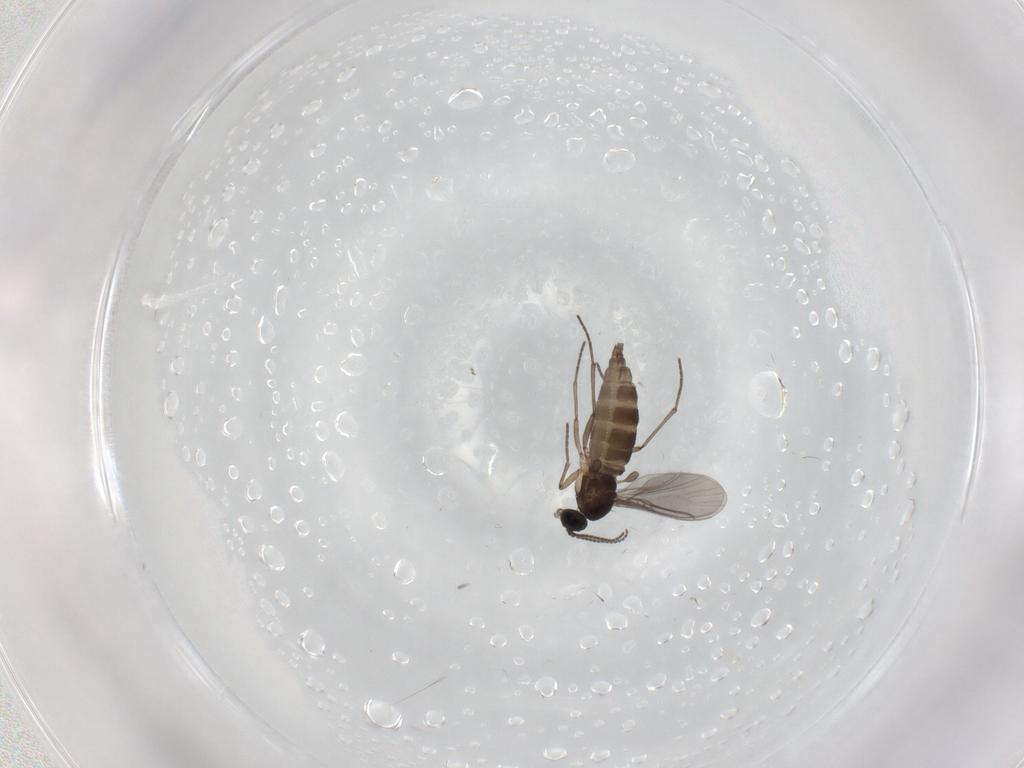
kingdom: Animalia
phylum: Arthropoda
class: Insecta
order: Diptera
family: Sciaridae
